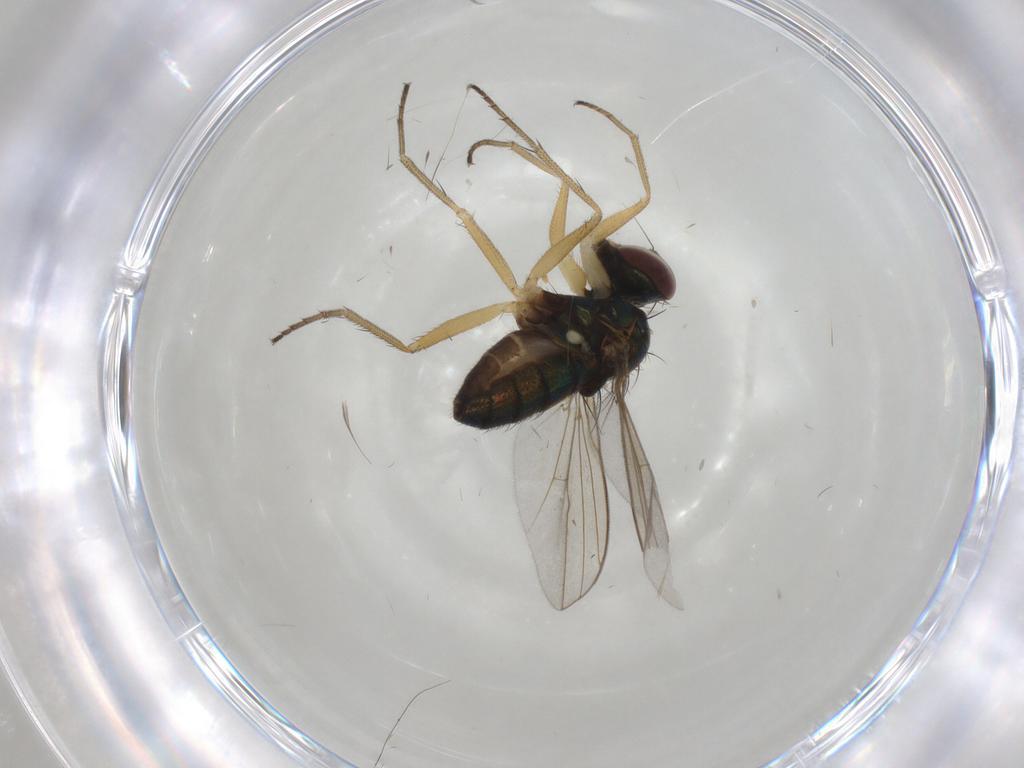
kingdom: Animalia
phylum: Arthropoda
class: Insecta
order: Diptera
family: Dolichopodidae
